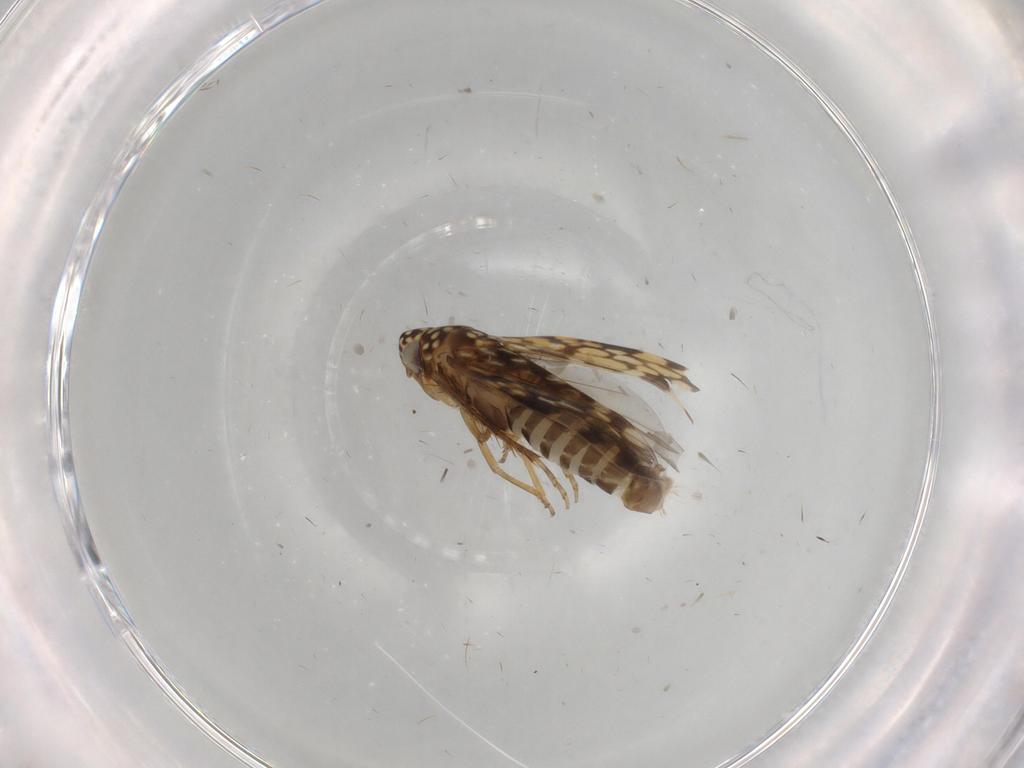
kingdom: Animalia
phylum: Arthropoda
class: Insecta
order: Hemiptera
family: Cicadellidae
